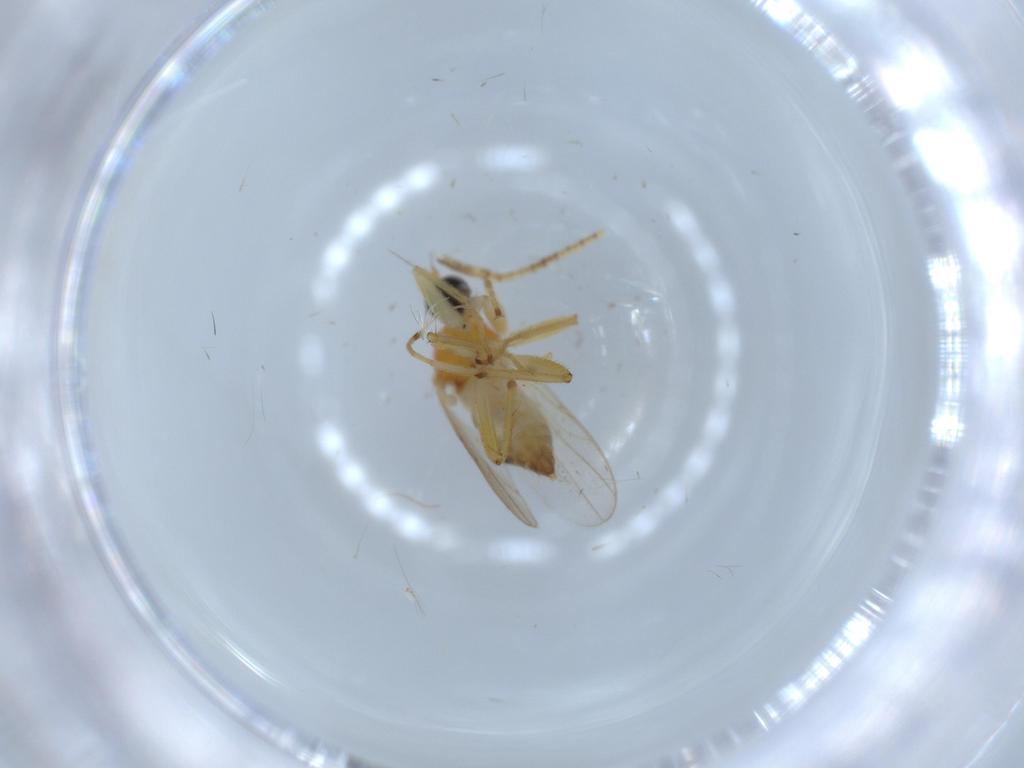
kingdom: Animalia
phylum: Arthropoda
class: Insecta
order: Diptera
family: Sciaridae
